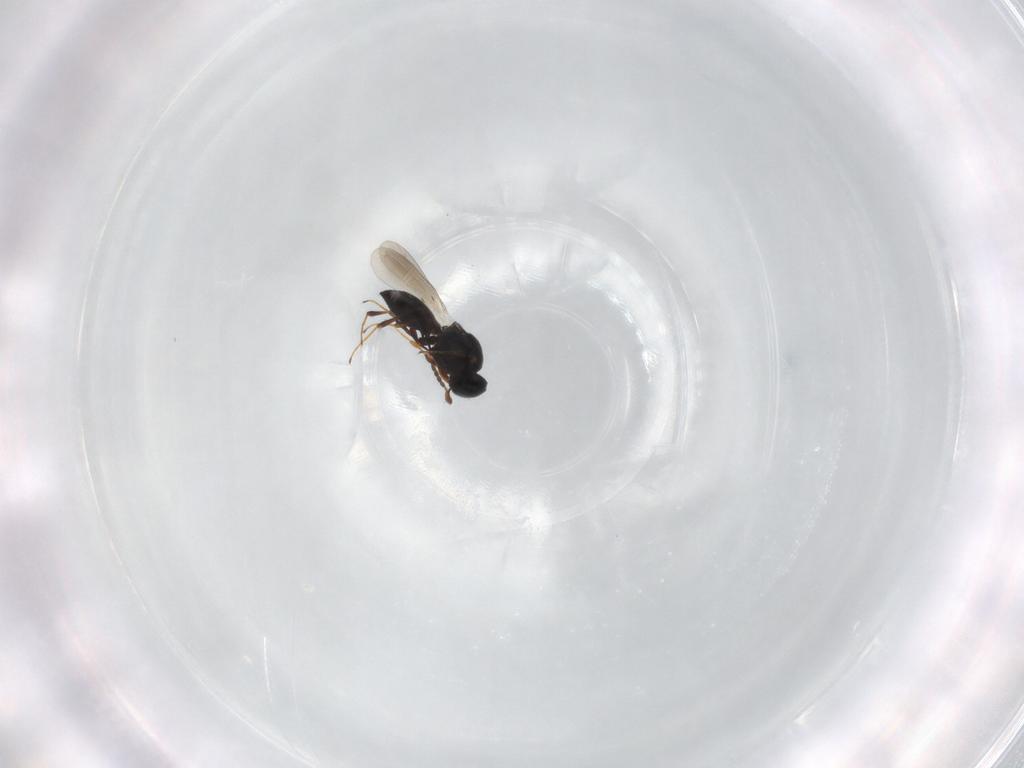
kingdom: Animalia
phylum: Arthropoda
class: Insecta
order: Hymenoptera
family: Platygastridae
